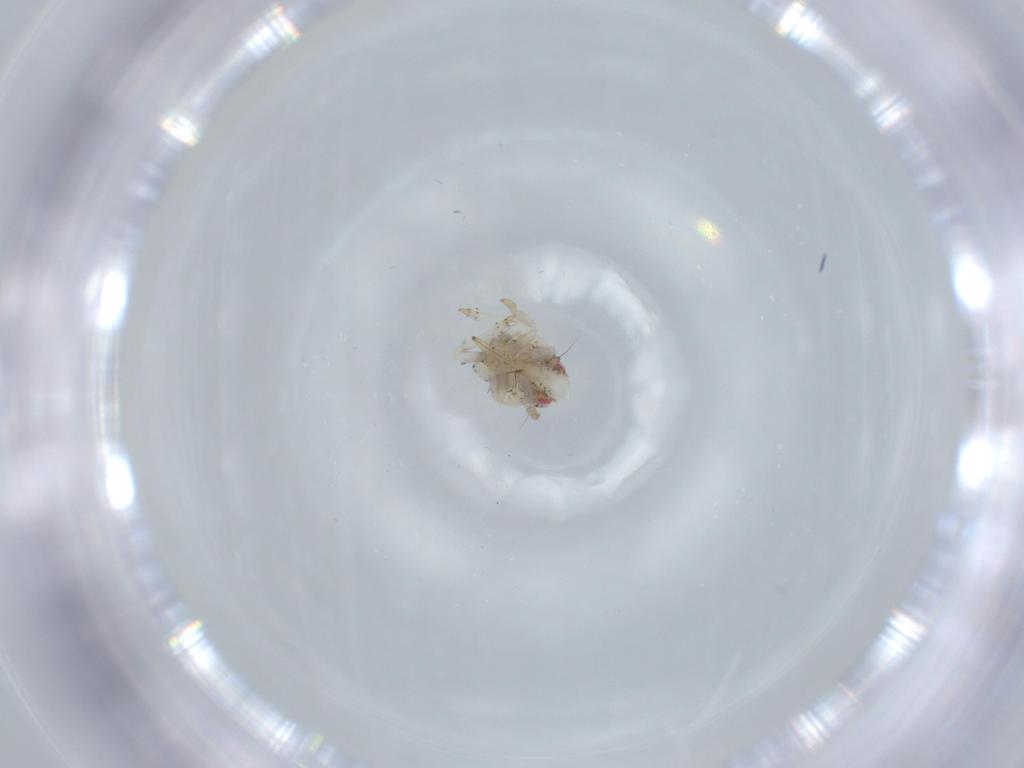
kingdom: Animalia
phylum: Arthropoda
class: Insecta
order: Hemiptera
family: Acanaloniidae
